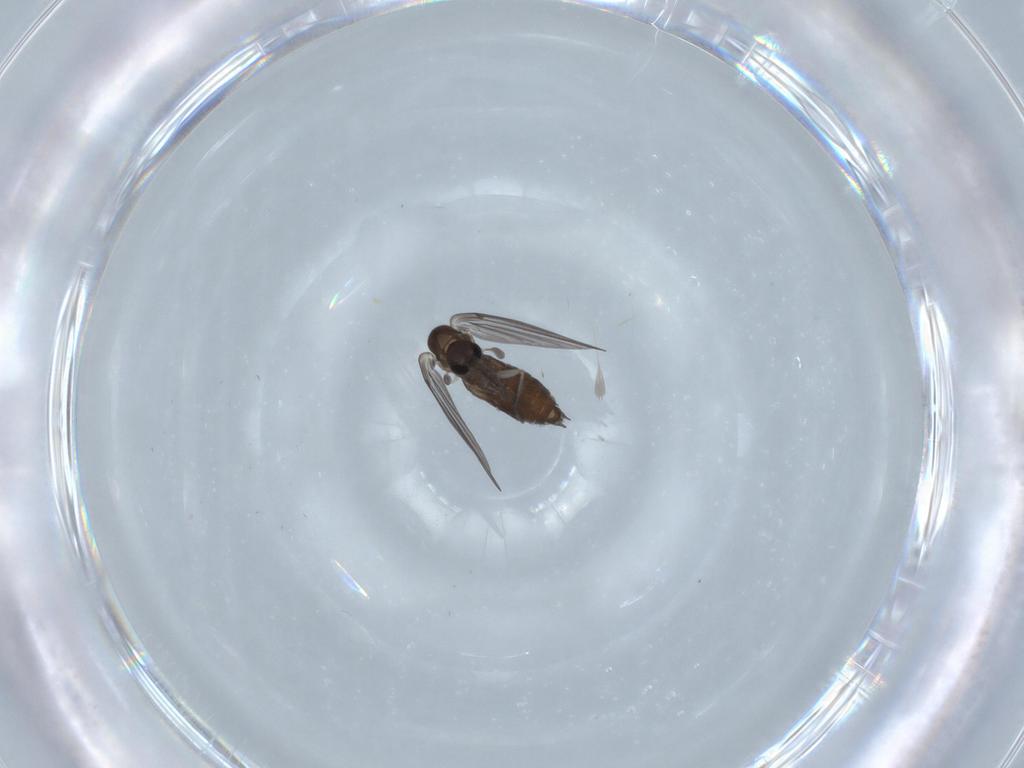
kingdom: Animalia
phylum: Arthropoda
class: Insecta
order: Diptera
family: Psychodidae
